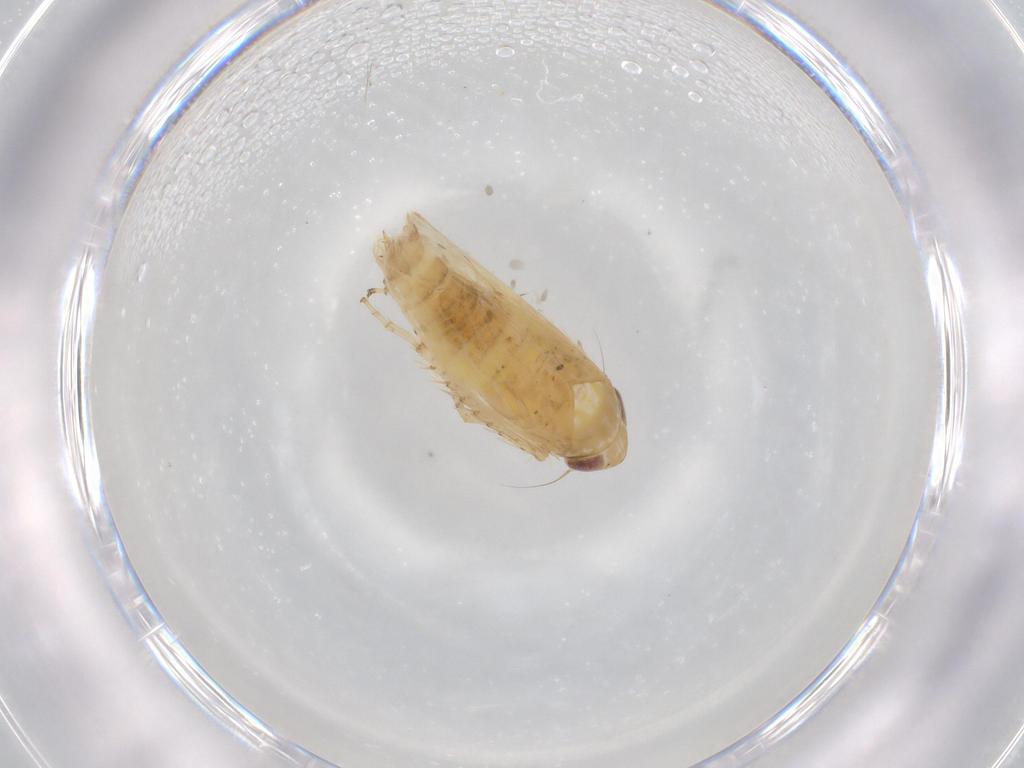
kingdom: Animalia
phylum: Arthropoda
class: Insecta
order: Hemiptera
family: Cicadellidae
